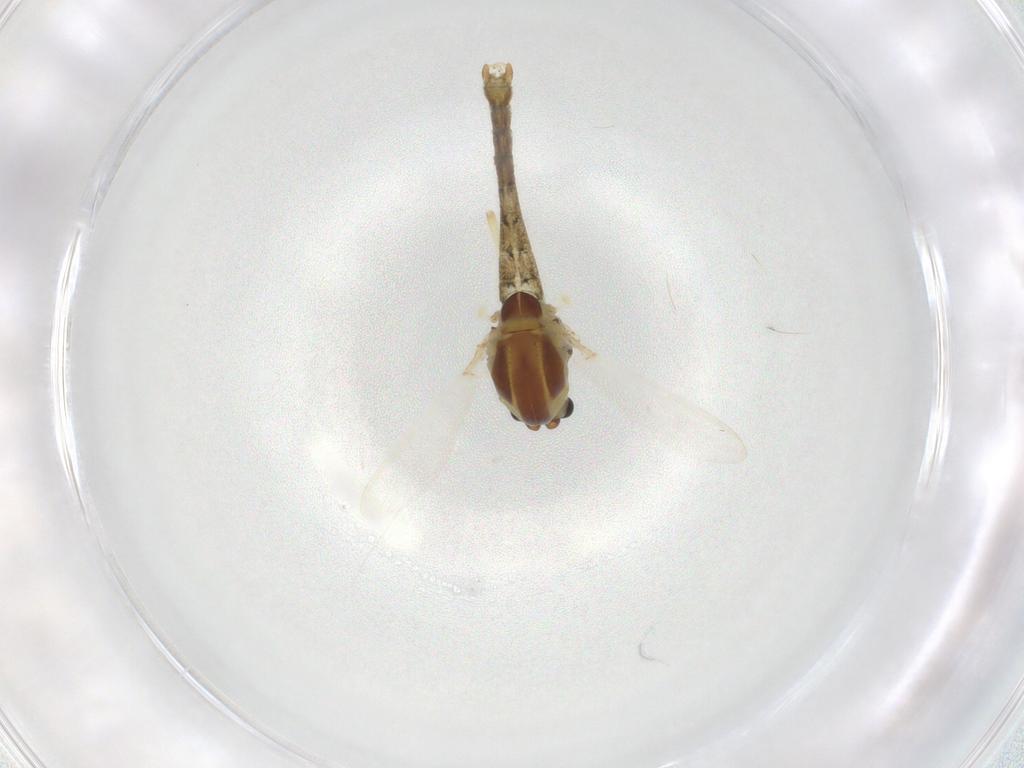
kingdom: Animalia
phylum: Arthropoda
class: Insecta
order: Diptera
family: Chironomidae
